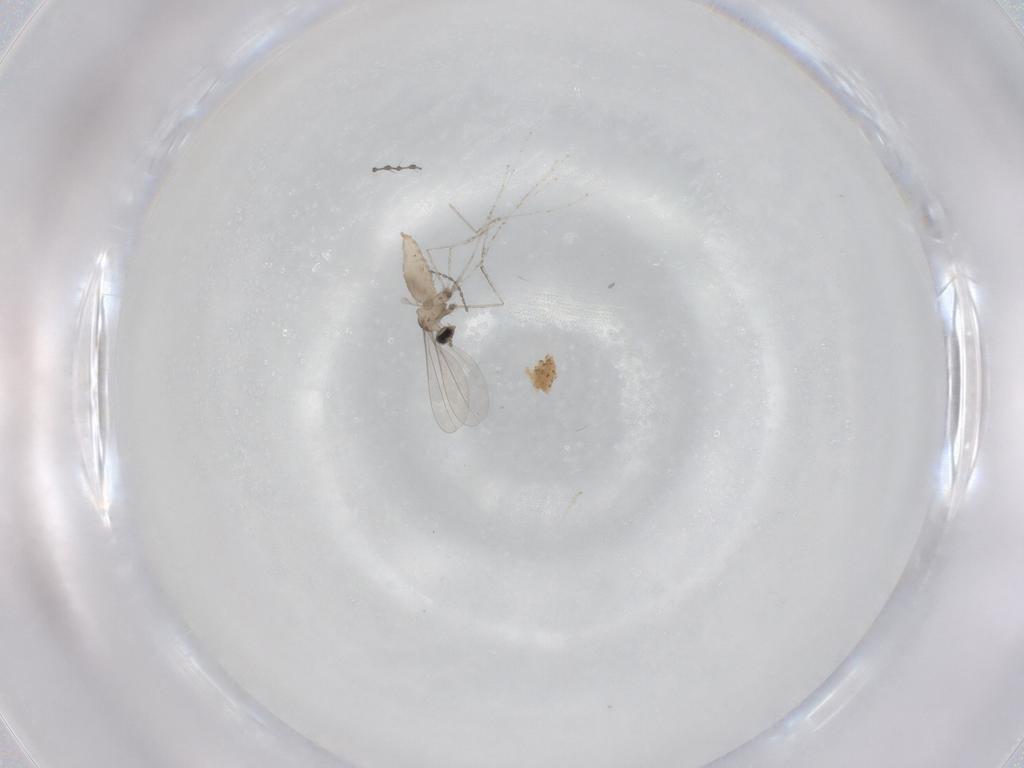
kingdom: Animalia
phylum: Arthropoda
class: Insecta
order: Diptera
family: Cecidomyiidae
